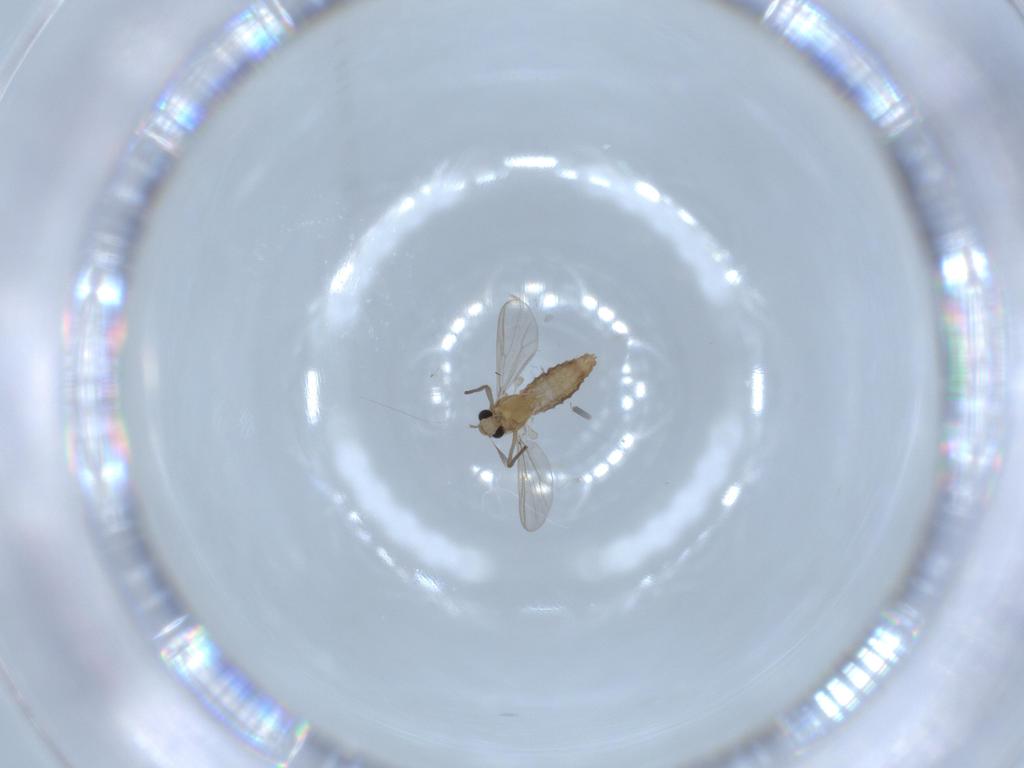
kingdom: Animalia
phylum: Arthropoda
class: Insecta
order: Diptera
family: Chironomidae
